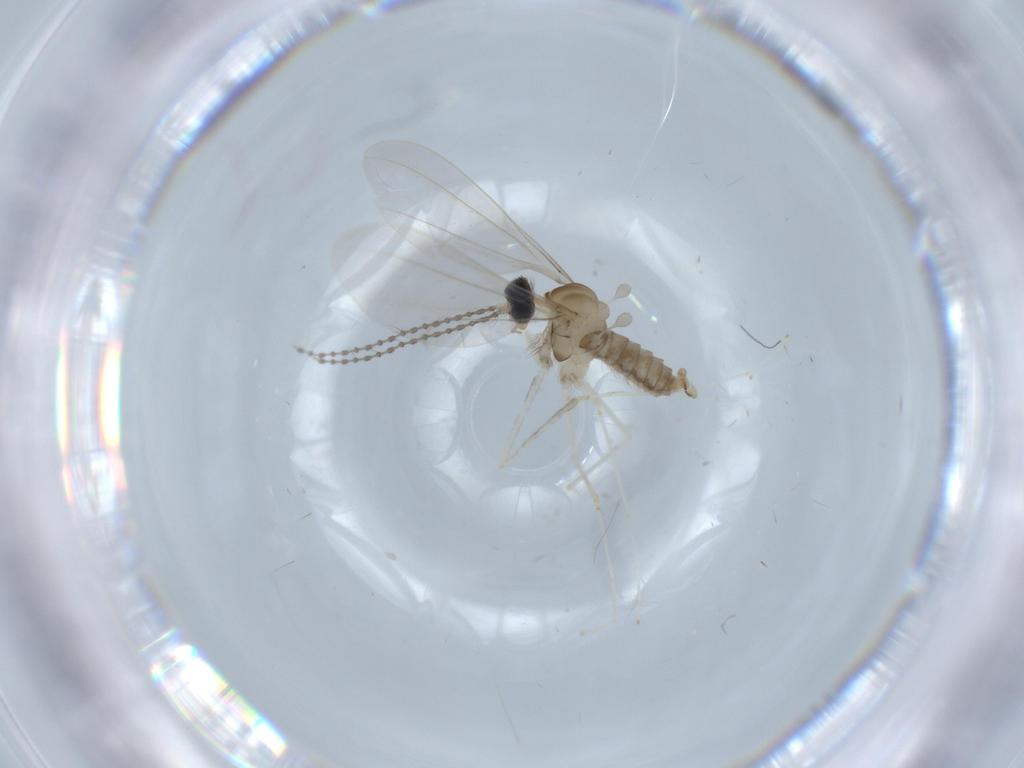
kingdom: Animalia
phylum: Arthropoda
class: Insecta
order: Diptera
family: Cecidomyiidae
